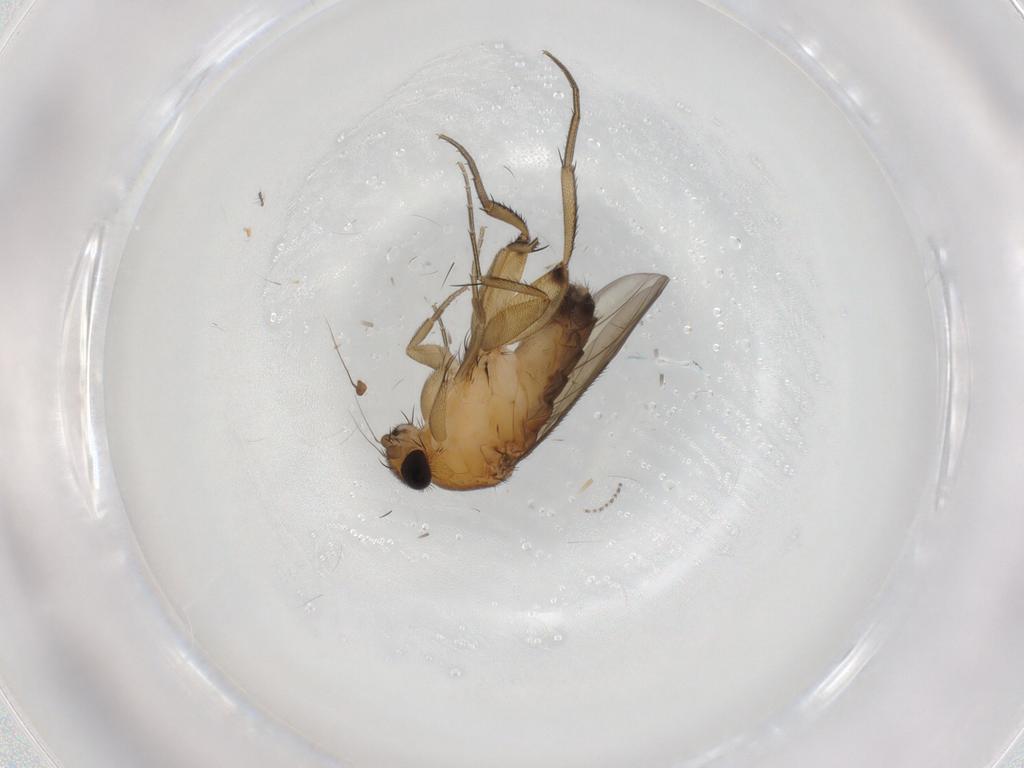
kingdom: Animalia
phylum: Arthropoda
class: Insecta
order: Diptera
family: Phoridae
